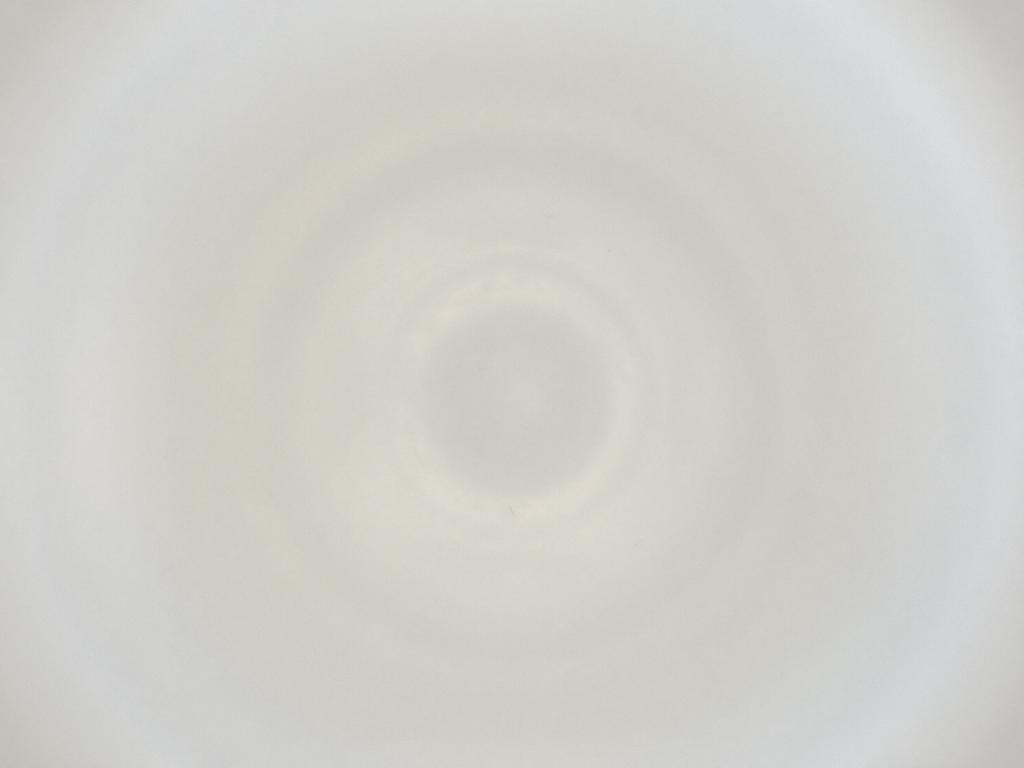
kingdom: Animalia
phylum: Arthropoda
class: Insecta
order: Diptera
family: Cecidomyiidae
